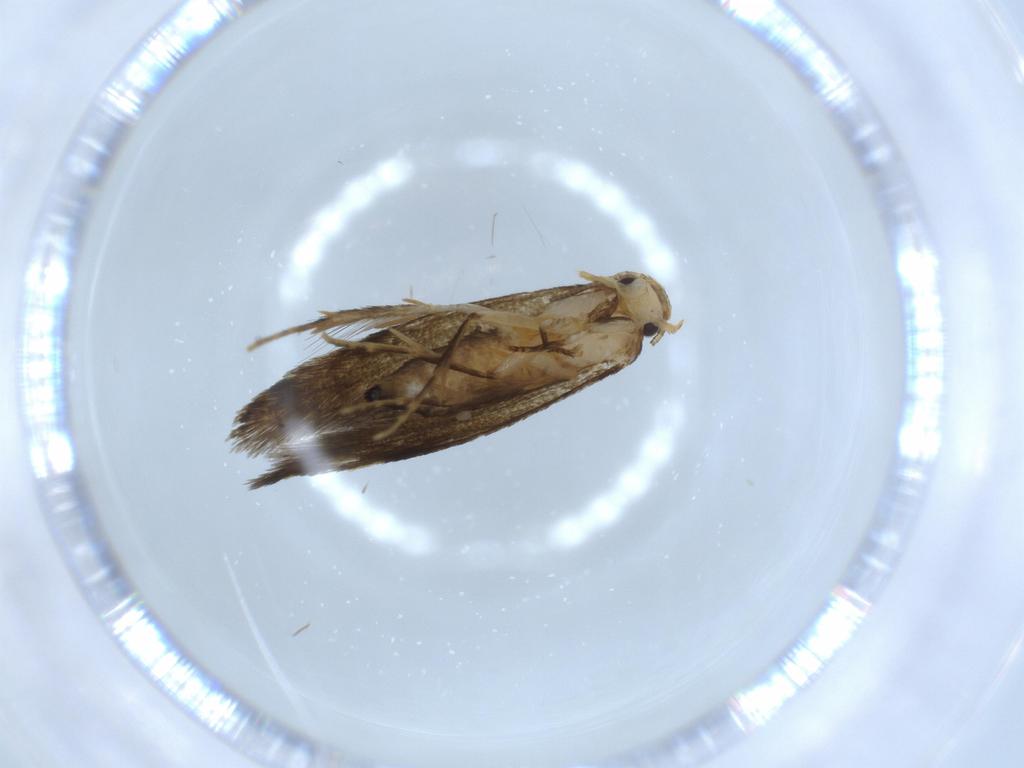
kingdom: Animalia
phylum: Arthropoda
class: Insecta
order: Lepidoptera
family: Tineidae
